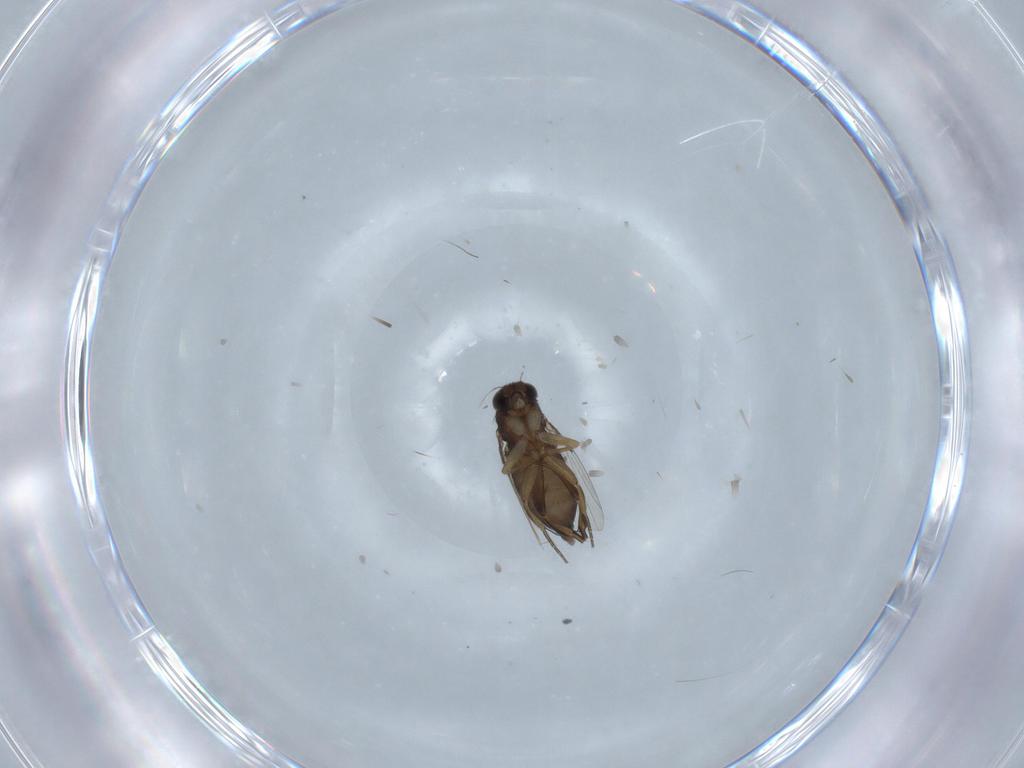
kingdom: Animalia
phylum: Arthropoda
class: Insecta
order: Diptera
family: Phoridae
